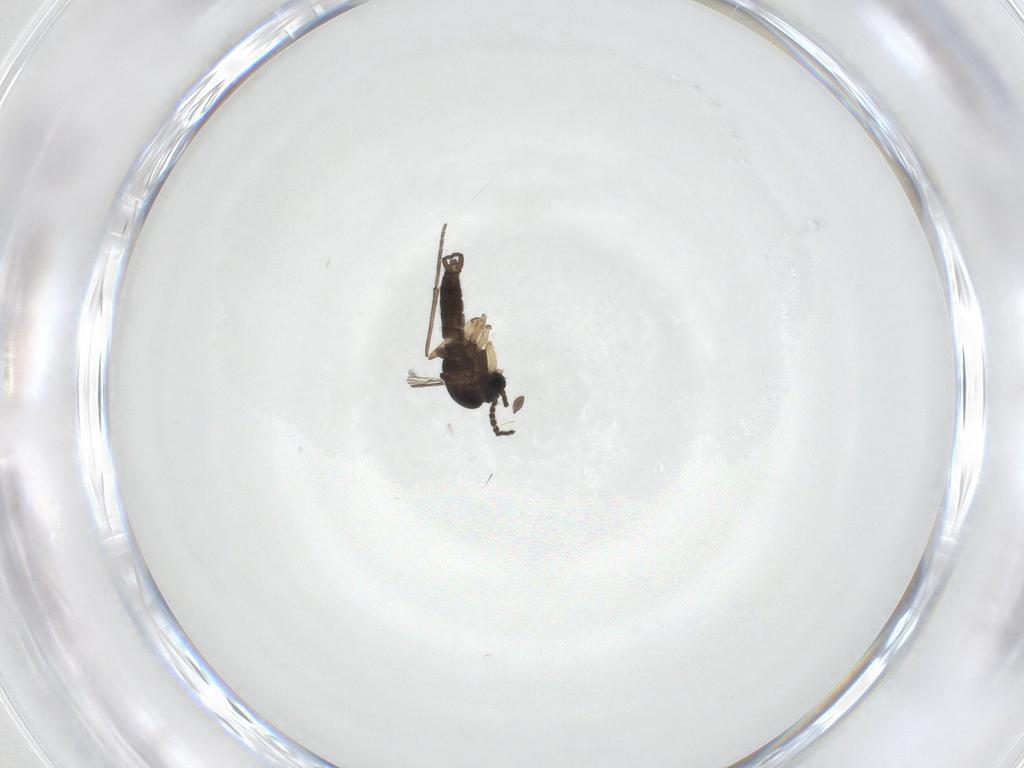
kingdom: Animalia
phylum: Arthropoda
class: Insecta
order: Diptera
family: Sciaridae
